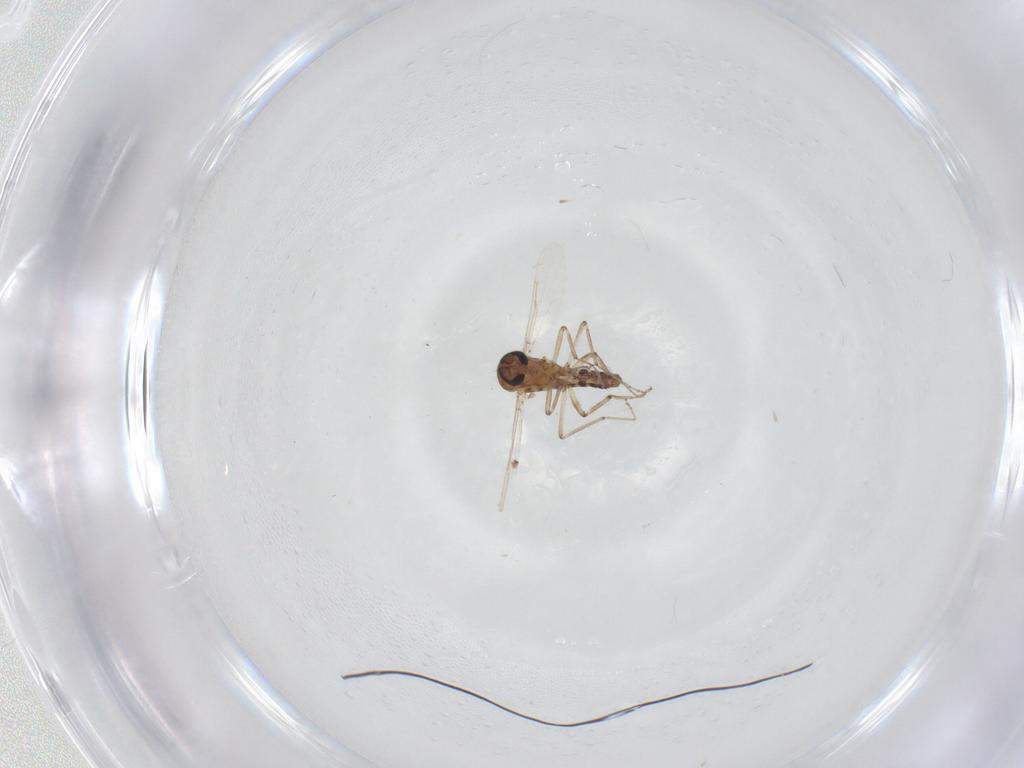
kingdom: Animalia
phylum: Arthropoda
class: Insecta
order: Diptera
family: Ceratopogonidae
